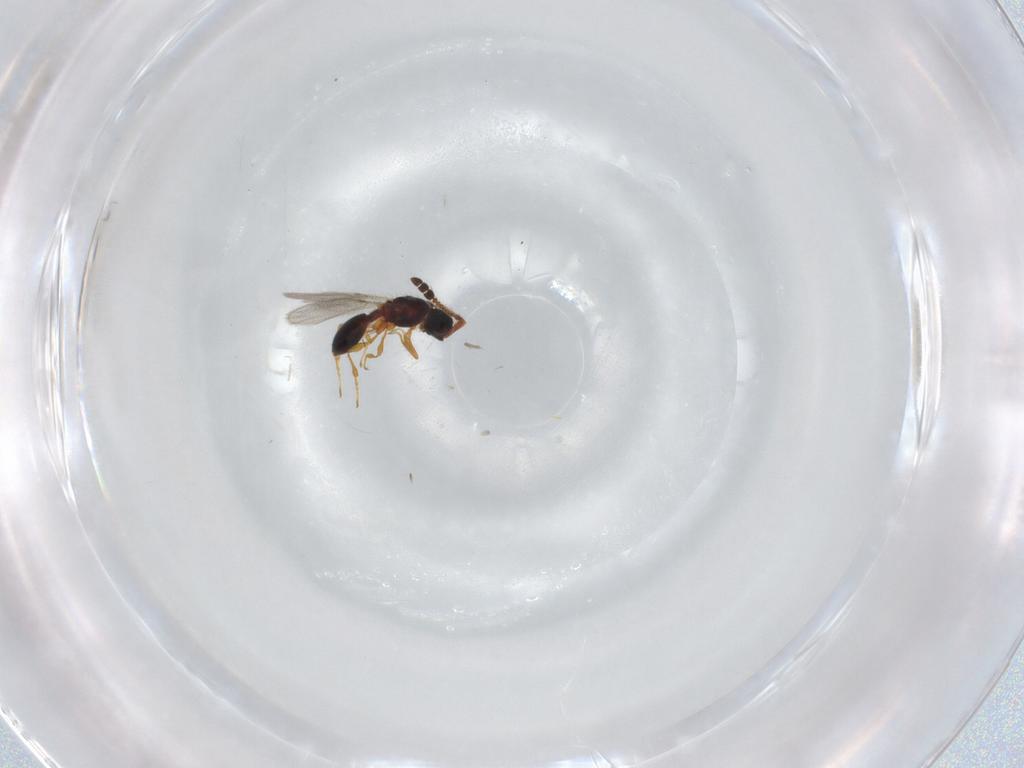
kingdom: Animalia
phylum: Arthropoda
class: Insecta
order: Hymenoptera
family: Diapriidae
